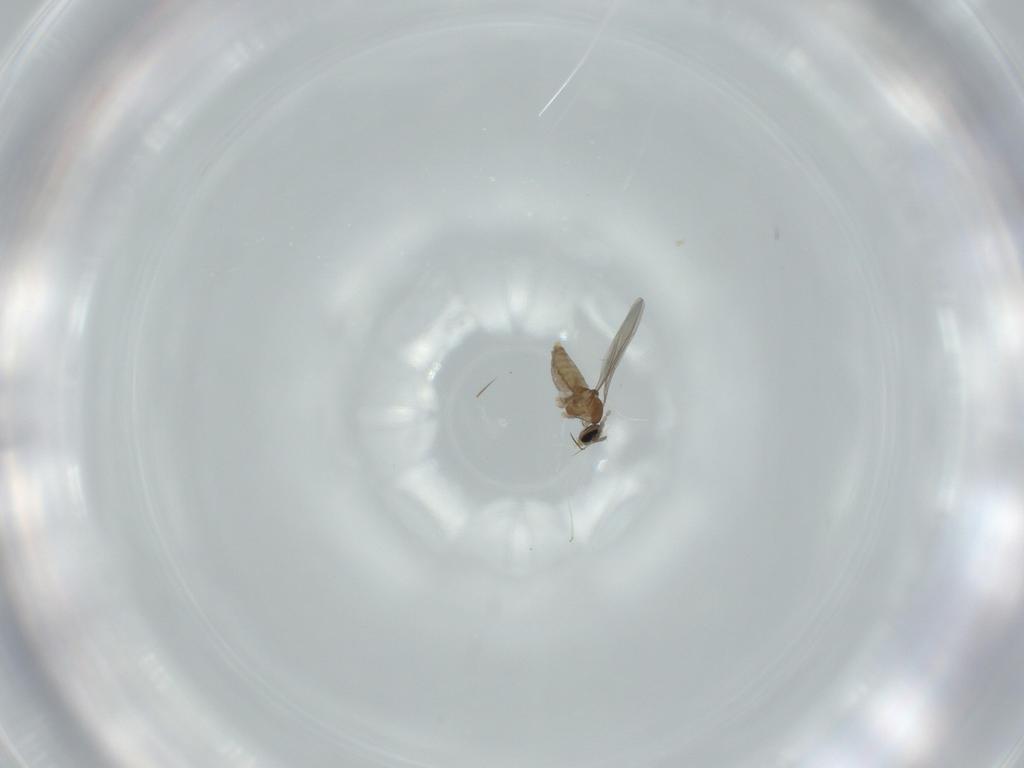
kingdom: Animalia
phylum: Arthropoda
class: Insecta
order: Diptera
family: Cecidomyiidae
